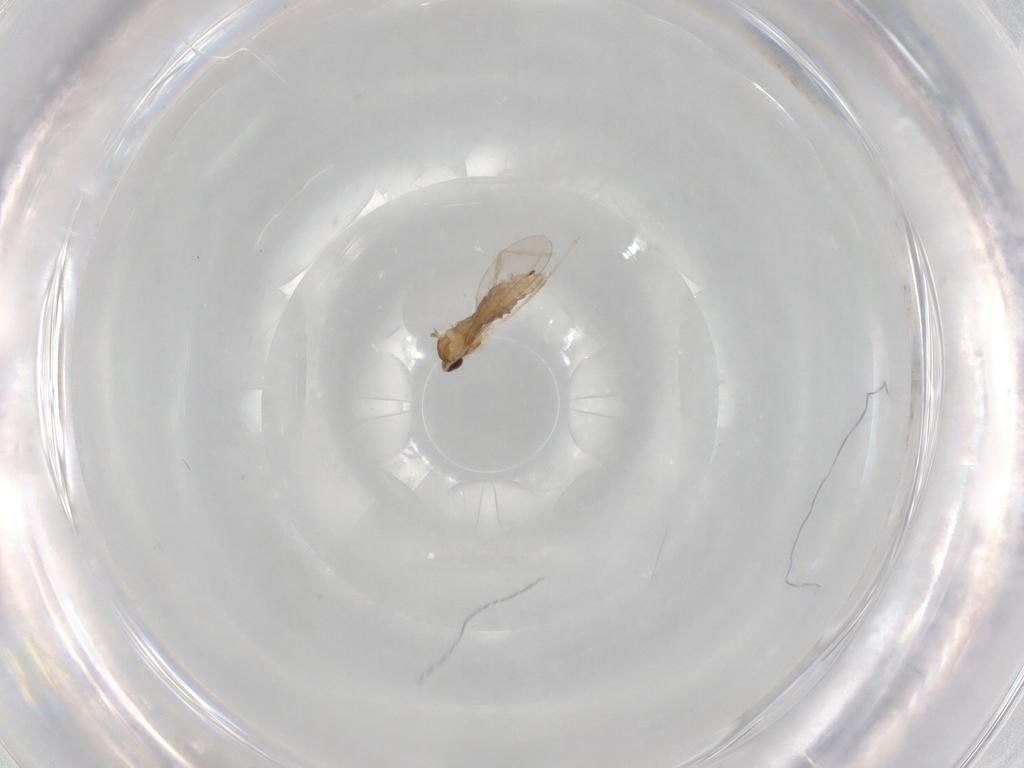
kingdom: Animalia
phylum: Arthropoda
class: Insecta
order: Diptera
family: Cecidomyiidae
